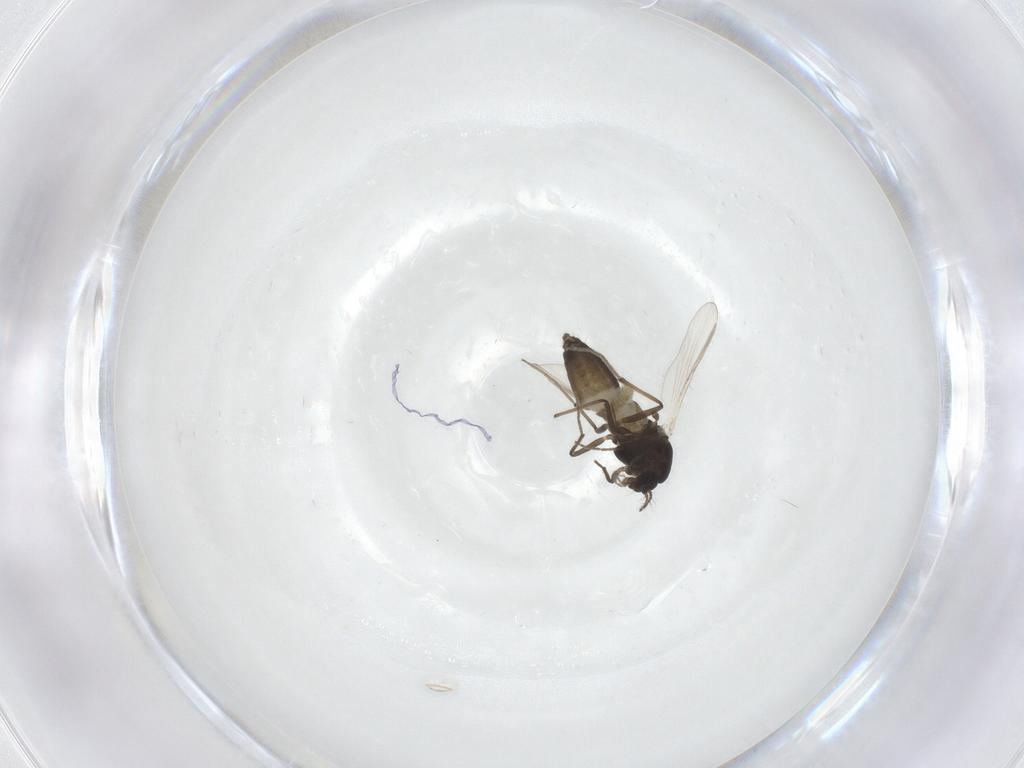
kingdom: Animalia
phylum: Arthropoda
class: Insecta
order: Diptera
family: Chironomidae
